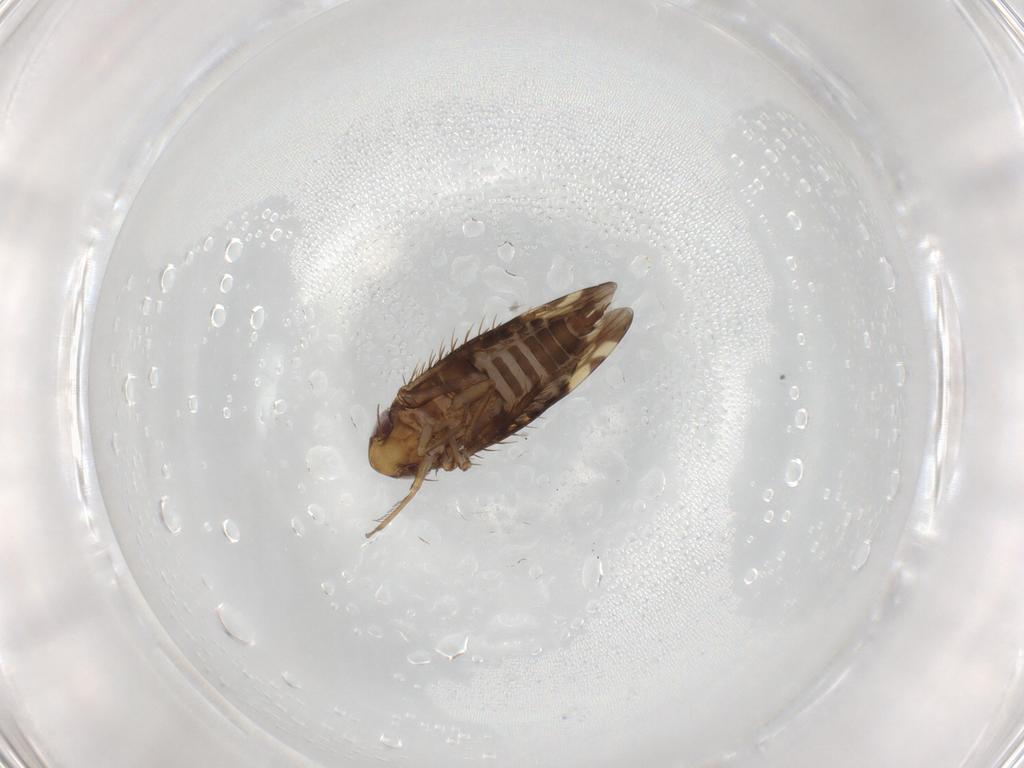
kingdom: Animalia
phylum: Arthropoda
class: Insecta
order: Hemiptera
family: Cicadellidae
